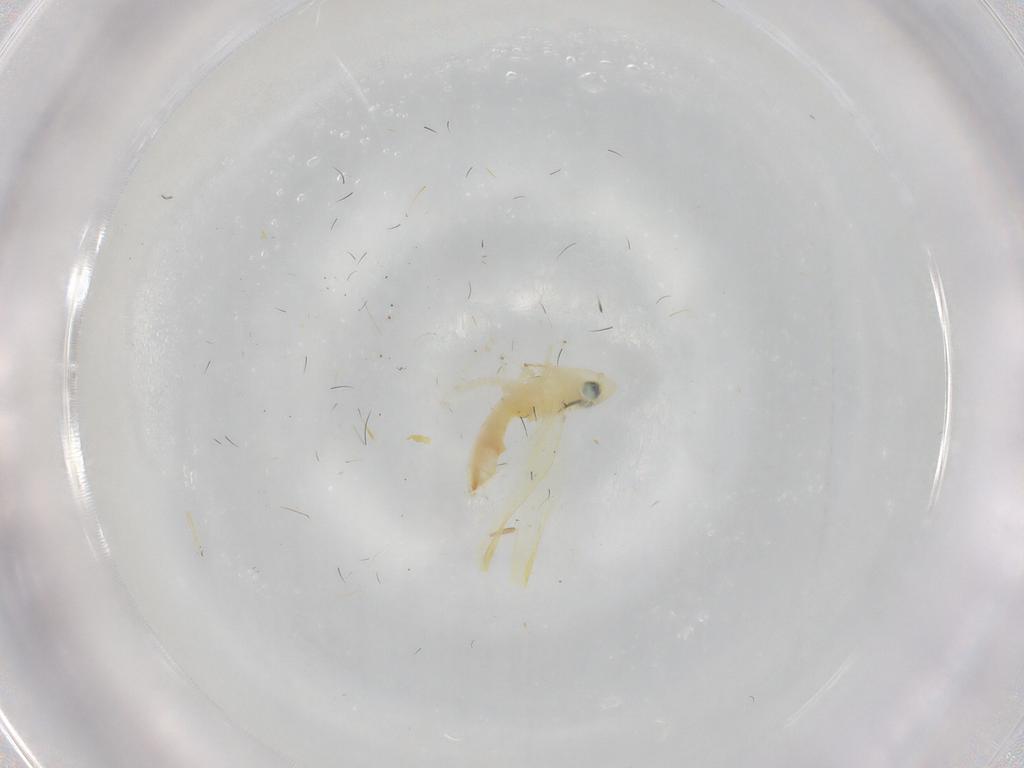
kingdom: Animalia
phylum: Arthropoda
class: Insecta
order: Hemiptera
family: Cicadellidae
